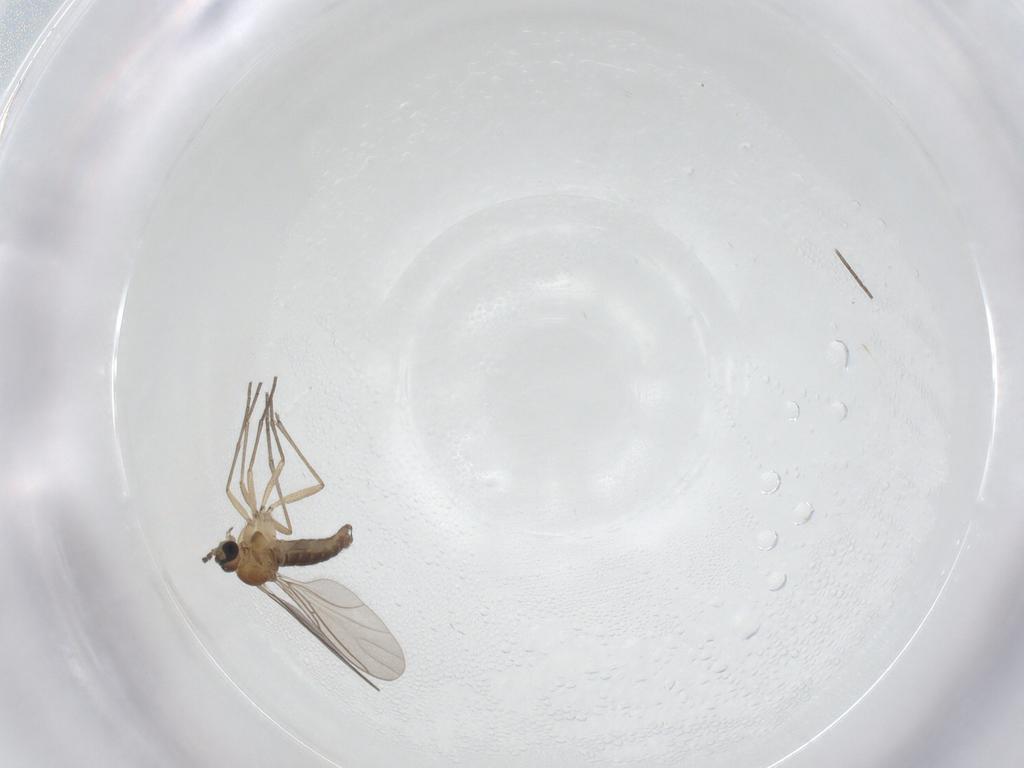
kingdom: Animalia
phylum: Arthropoda
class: Insecta
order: Diptera
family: Sciaridae
